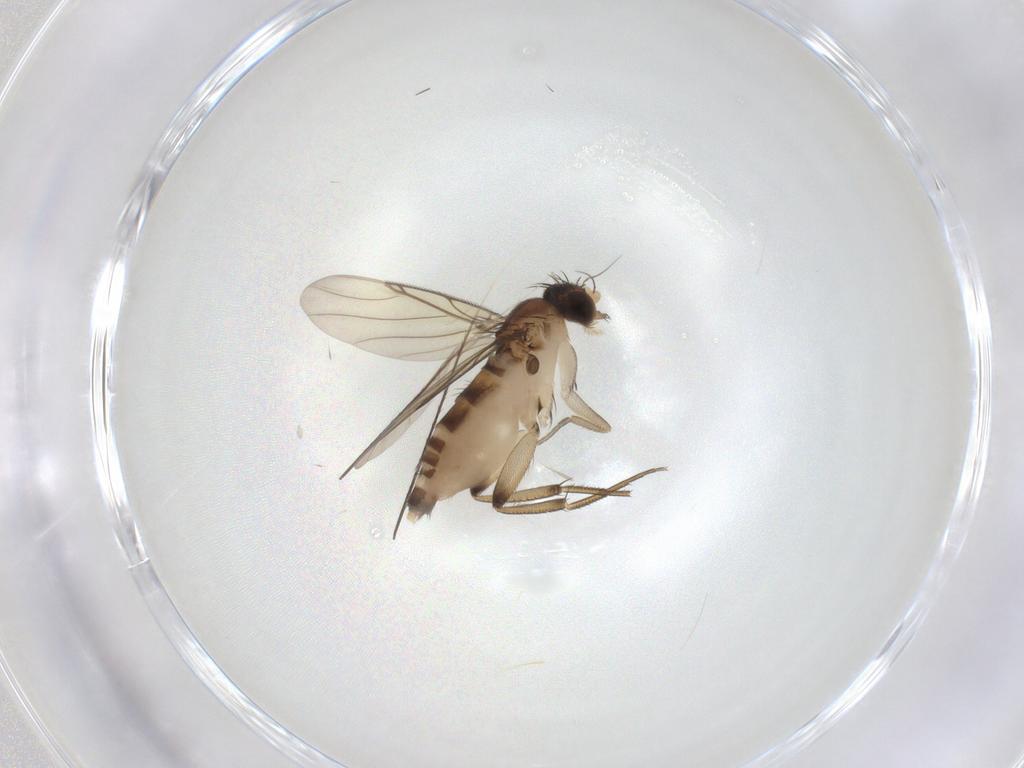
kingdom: Animalia
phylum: Arthropoda
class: Insecta
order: Diptera
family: Phoridae
